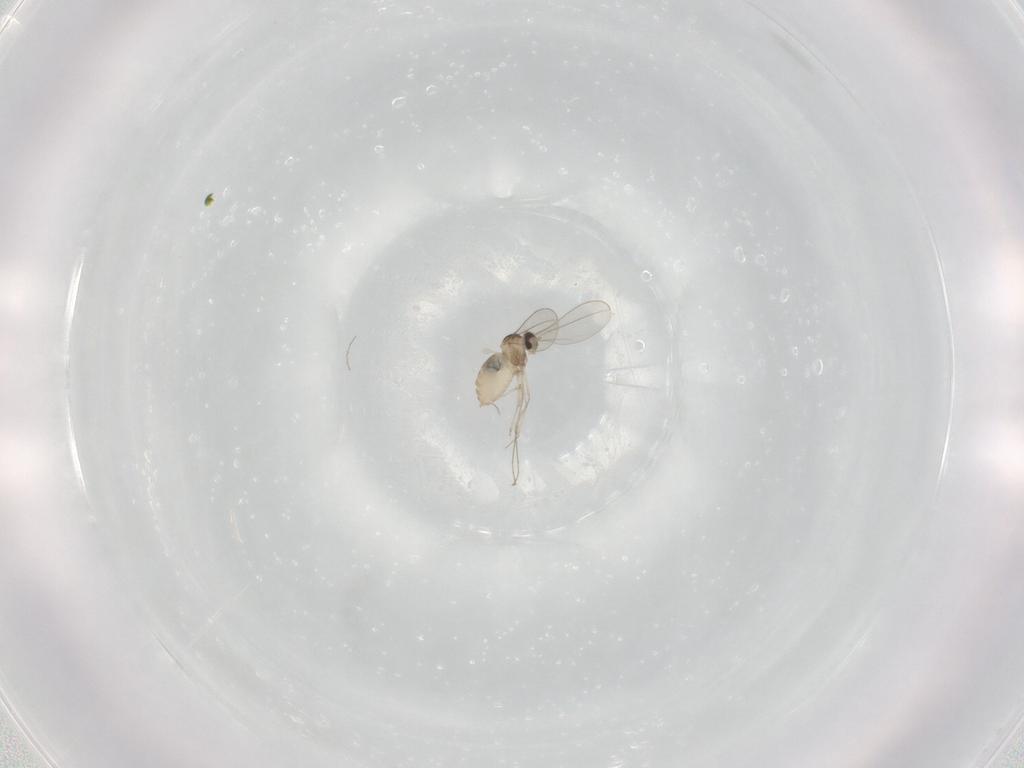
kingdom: Animalia
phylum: Arthropoda
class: Insecta
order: Diptera
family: Cecidomyiidae
